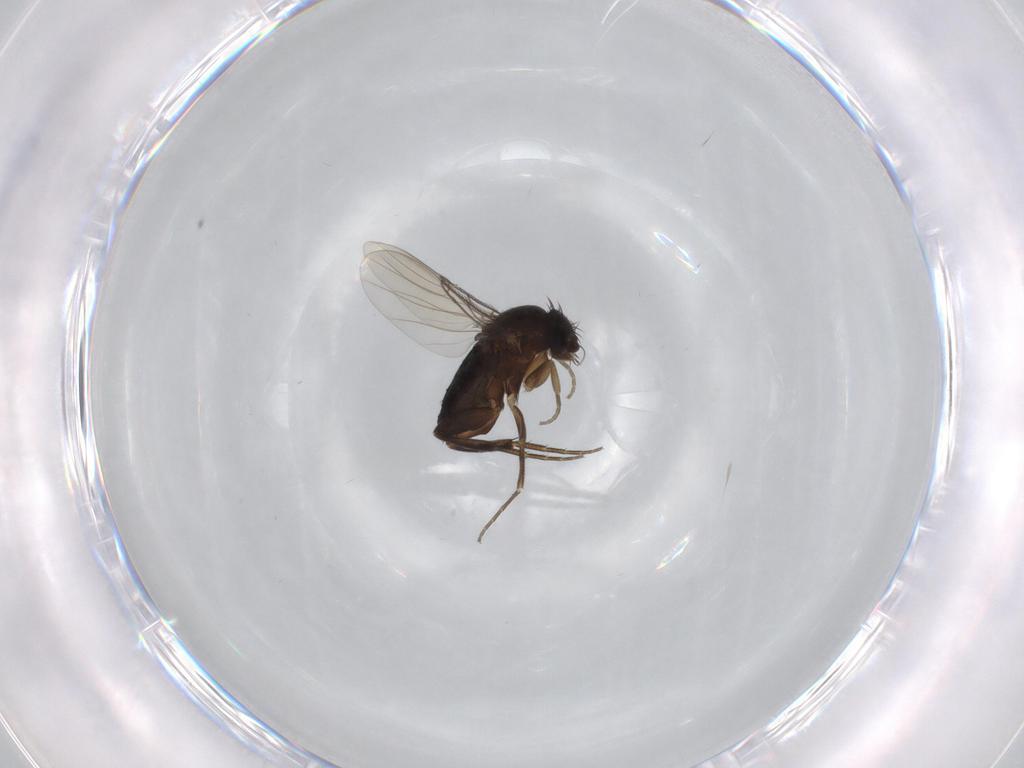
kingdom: Animalia
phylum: Arthropoda
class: Insecta
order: Diptera
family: Phoridae
